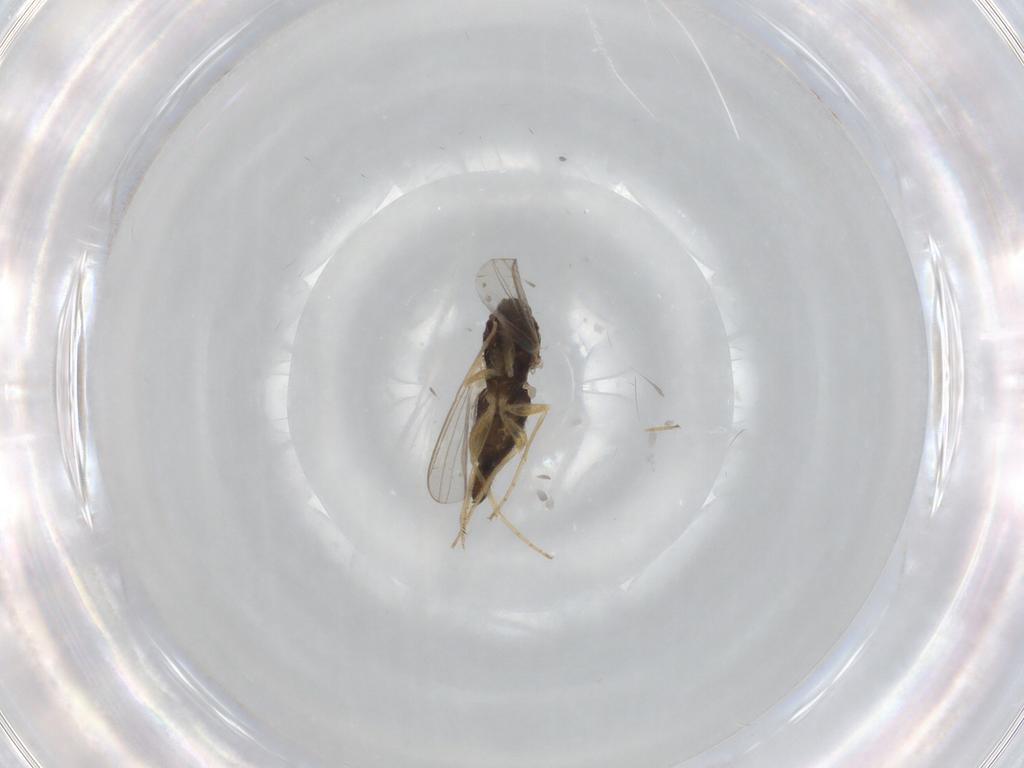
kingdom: Animalia
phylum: Arthropoda
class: Insecta
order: Diptera
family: Dolichopodidae
